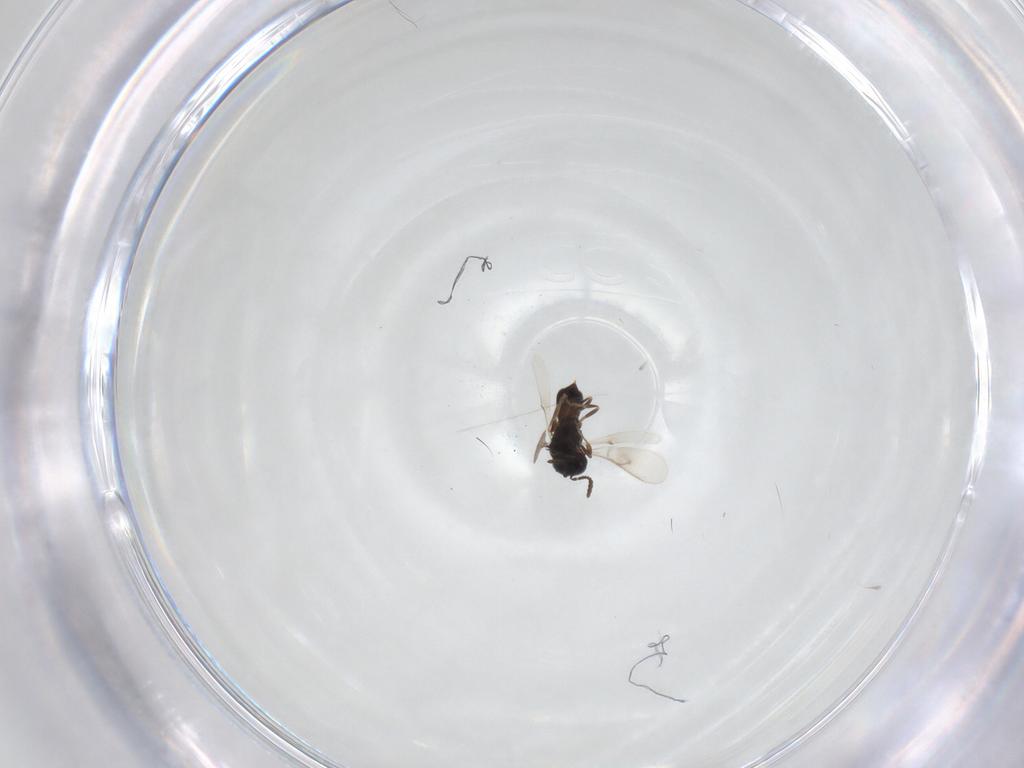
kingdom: Animalia
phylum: Arthropoda
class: Insecta
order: Hymenoptera
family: Scelionidae
